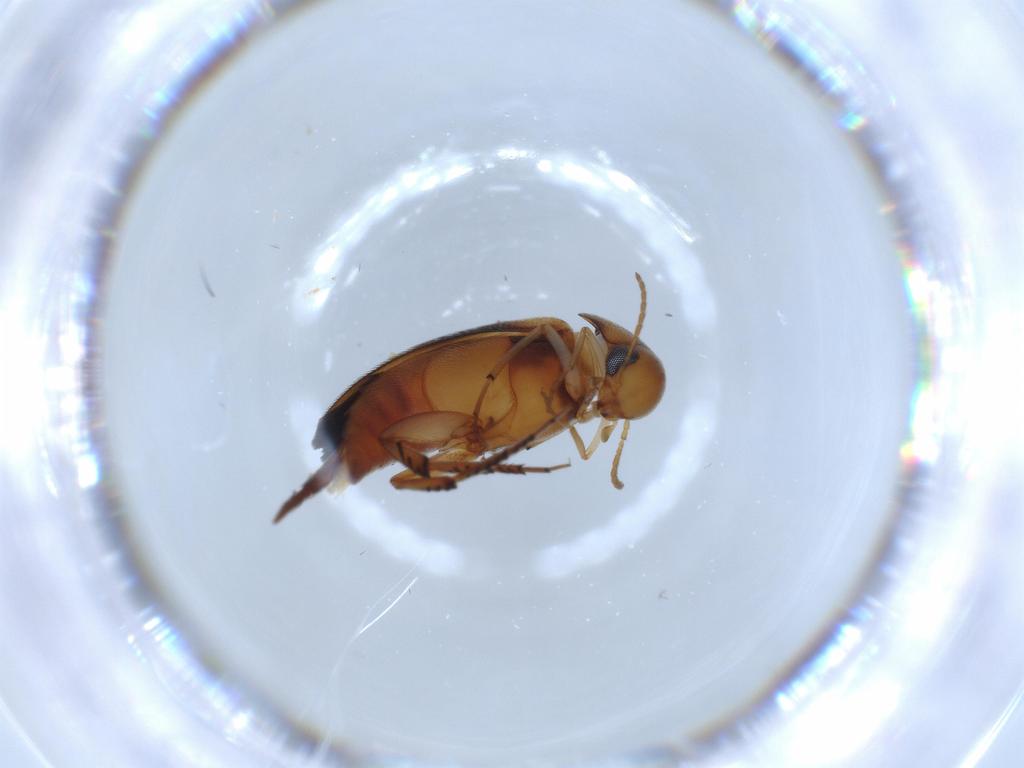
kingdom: Animalia
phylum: Arthropoda
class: Insecta
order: Coleoptera
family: Mordellidae
